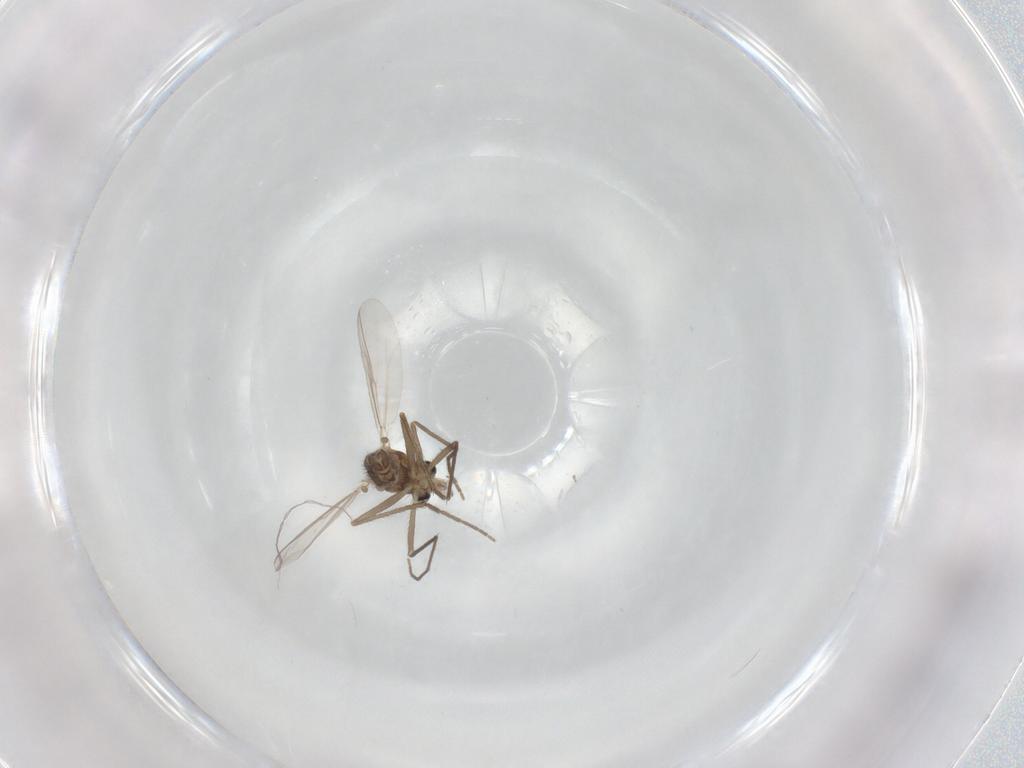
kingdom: Animalia
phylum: Arthropoda
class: Insecta
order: Diptera
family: Chironomidae
